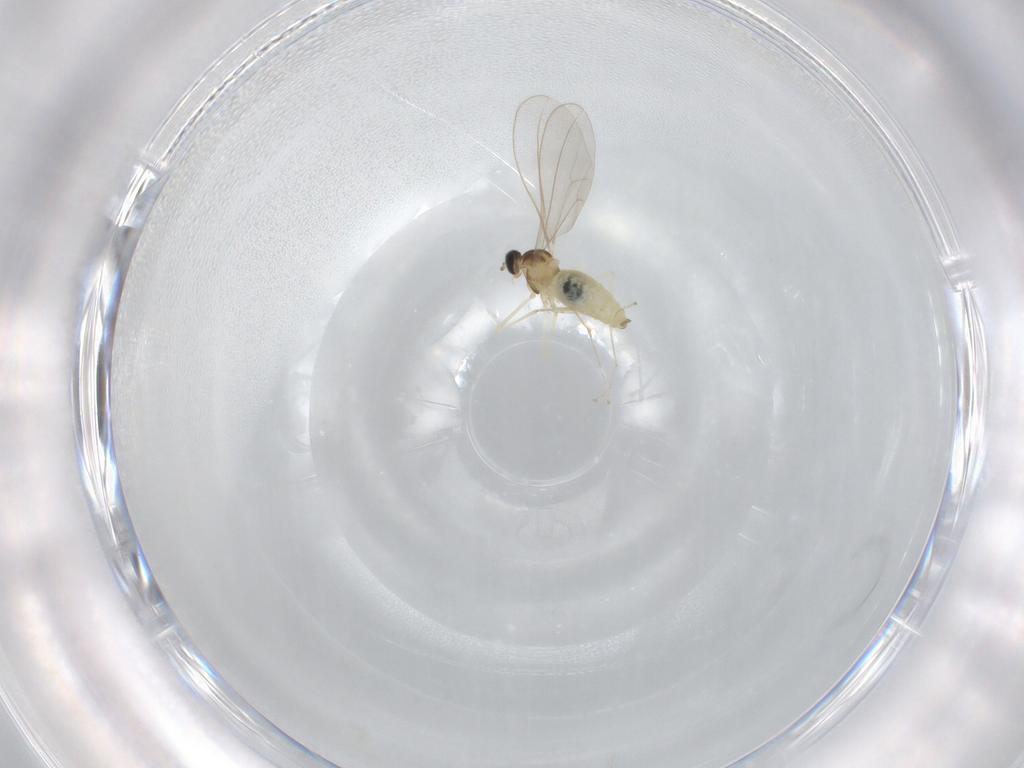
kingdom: Animalia
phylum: Arthropoda
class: Insecta
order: Diptera
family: Cecidomyiidae
